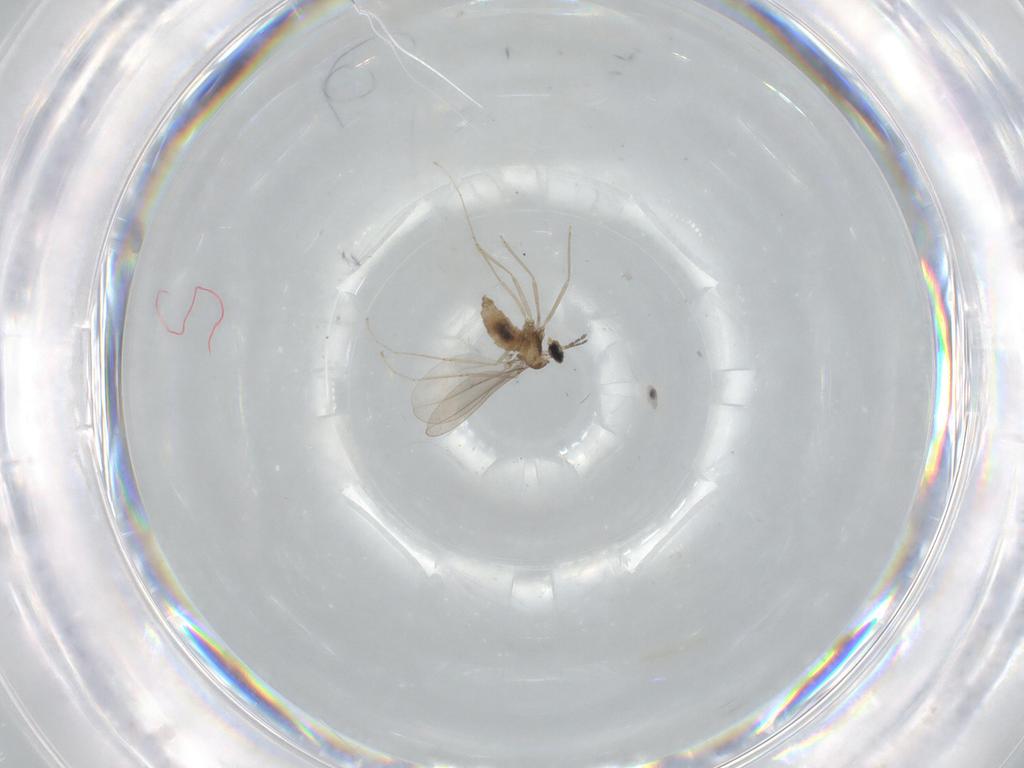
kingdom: Animalia
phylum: Arthropoda
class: Insecta
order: Diptera
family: Cecidomyiidae
